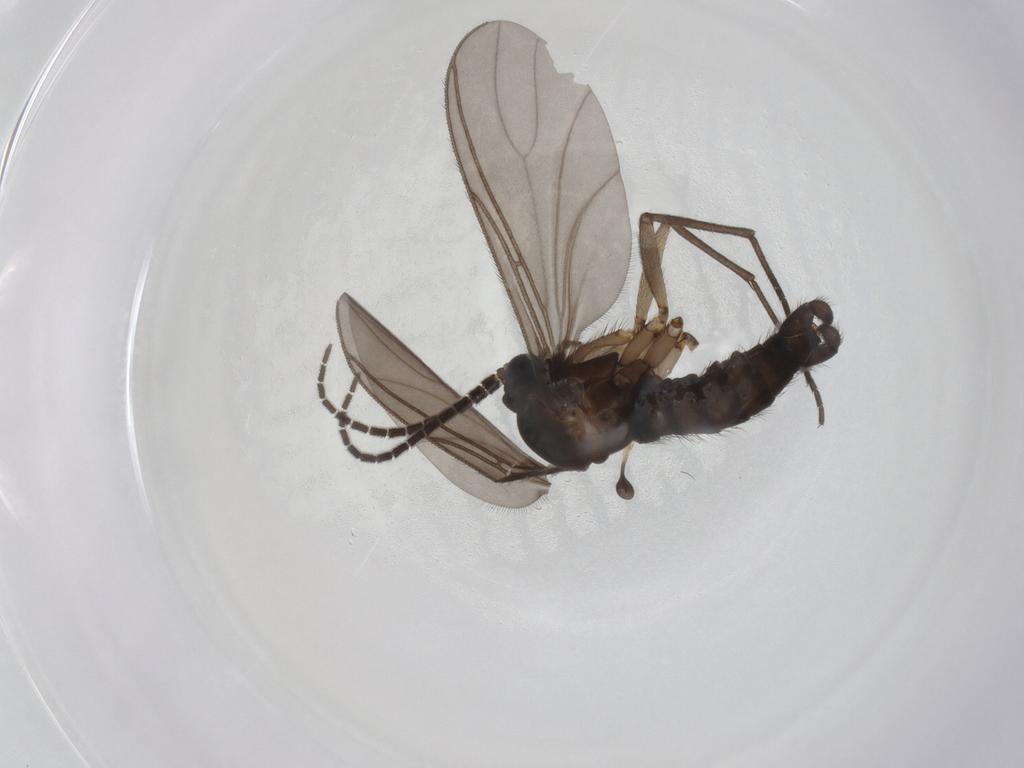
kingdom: Animalia
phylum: Arthropoda
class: Insecta
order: Diptera
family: Sciaridae
